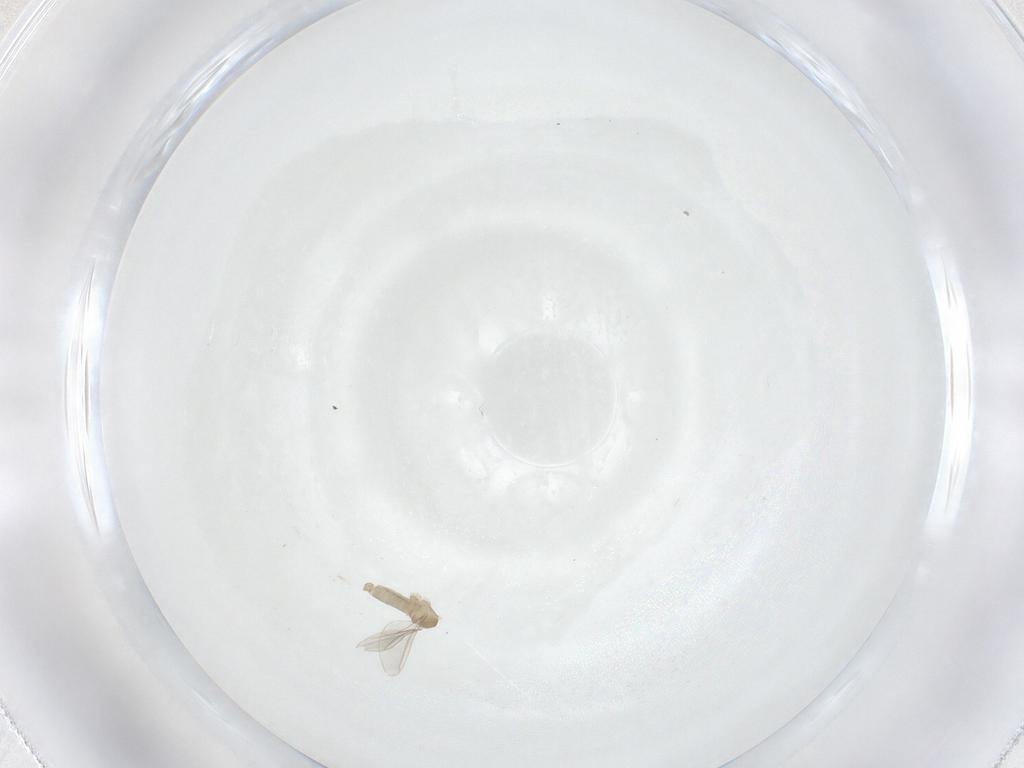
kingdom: Animalia
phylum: Arthropoda
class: Insecta
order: Diptera
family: Cecidomyiidae
